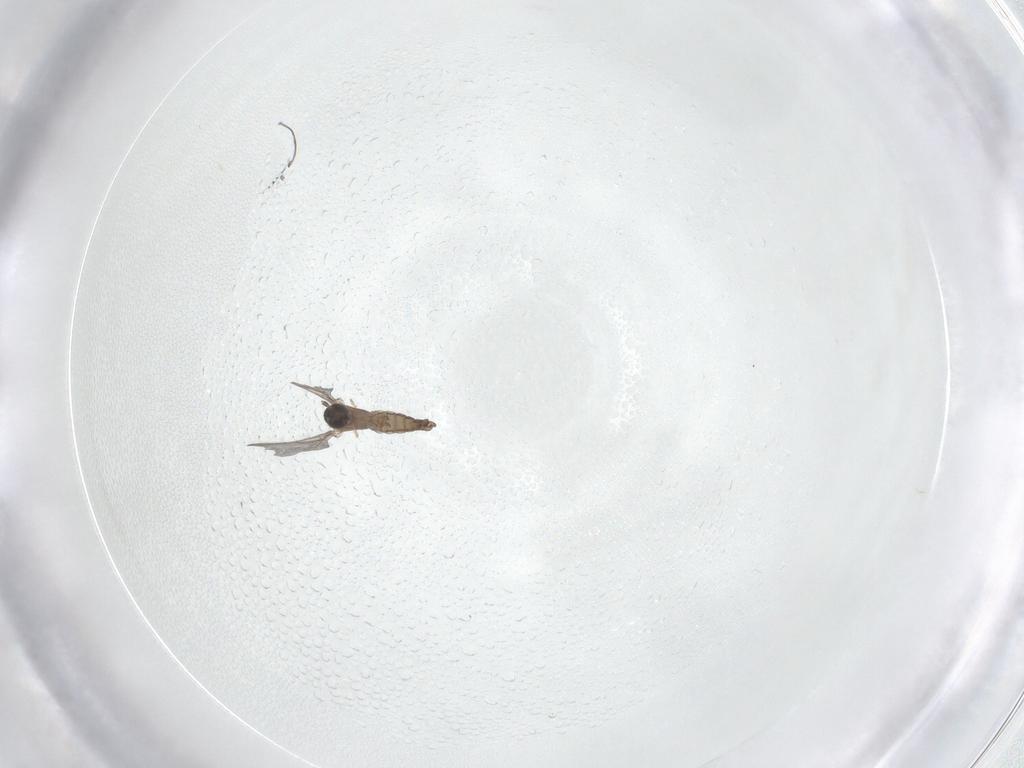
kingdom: Animalia
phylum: Arthropoda
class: Insecta
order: Diptera
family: Sciaridae
